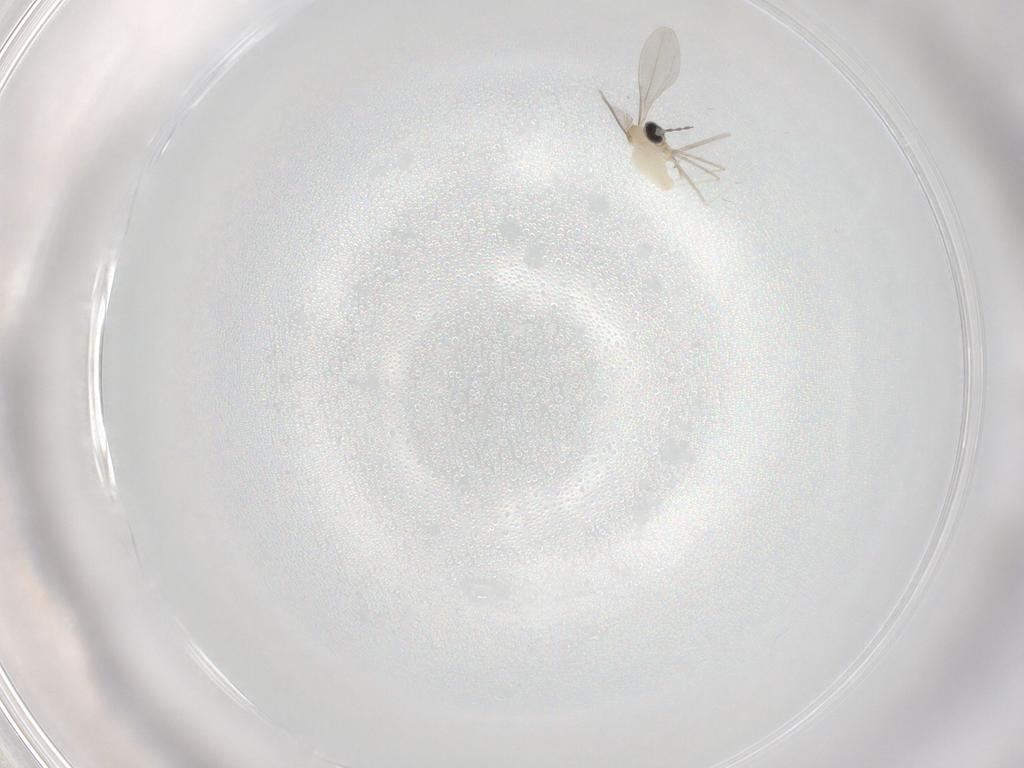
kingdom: Animalia
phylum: Arthropoda
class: Insecta
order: Diptera
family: Cecidomyiidae
